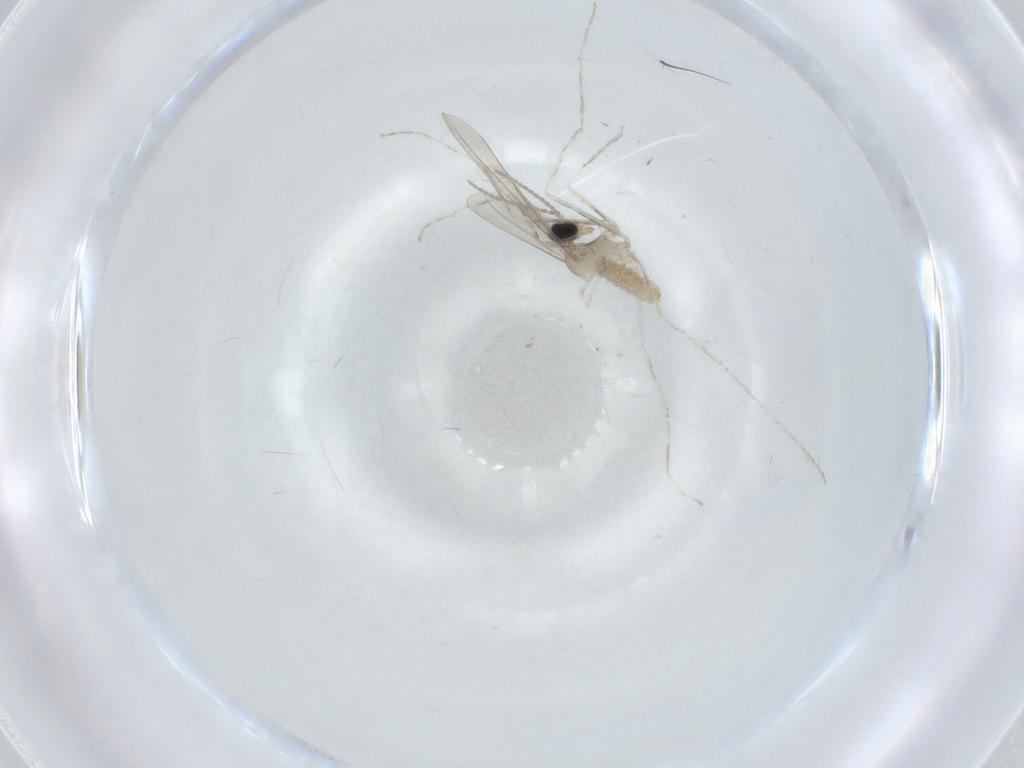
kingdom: Animalia
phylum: Arthropoda
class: Insecta
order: Diptera
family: Cecidomyiidae
